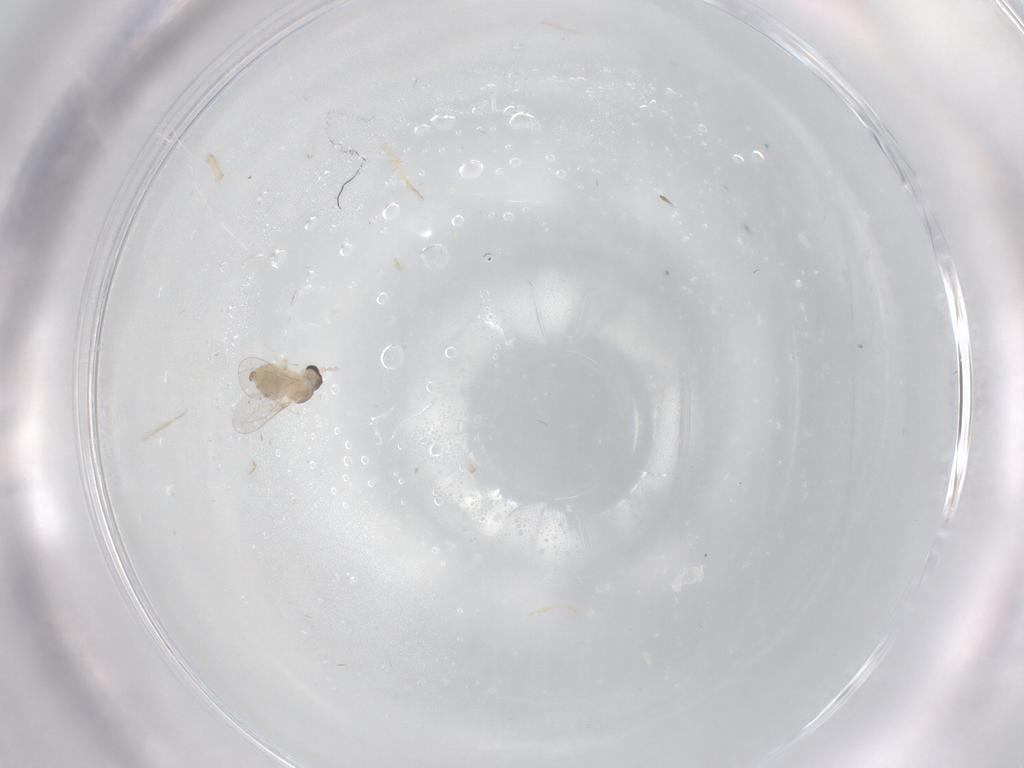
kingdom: Animalia
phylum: Arthropoda
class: Insecta
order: Diptera
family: Cecidomyiidae
